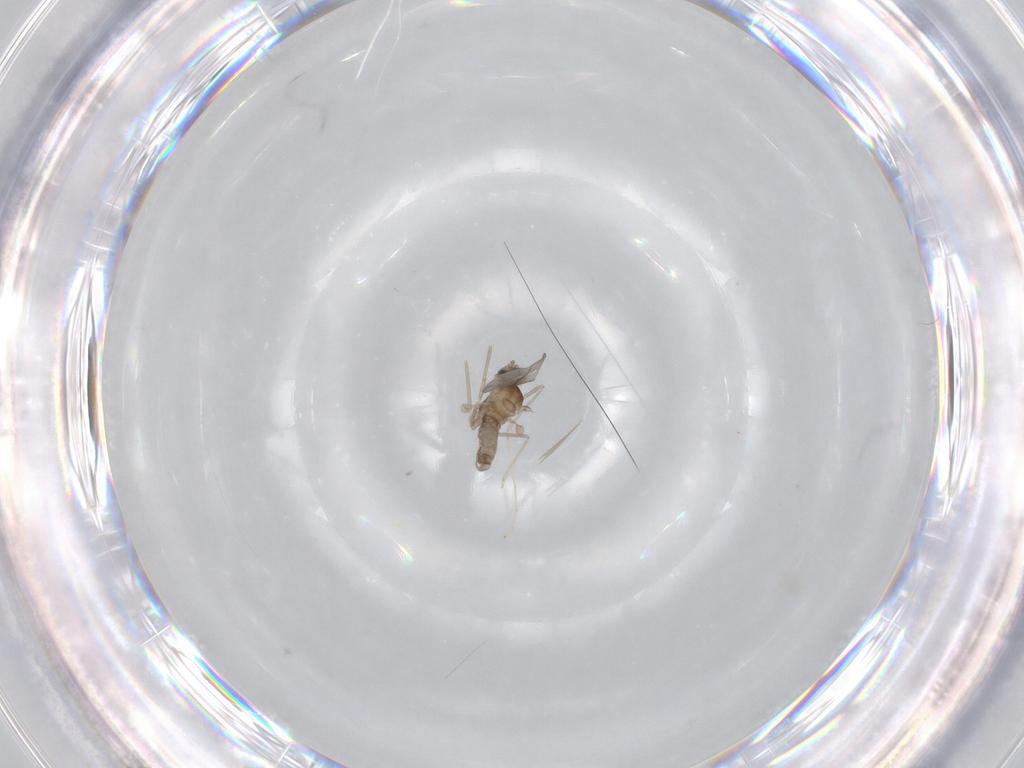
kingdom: Animalia
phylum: Arthropoda
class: Insecta
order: Diptera
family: Cecidomyiidae
